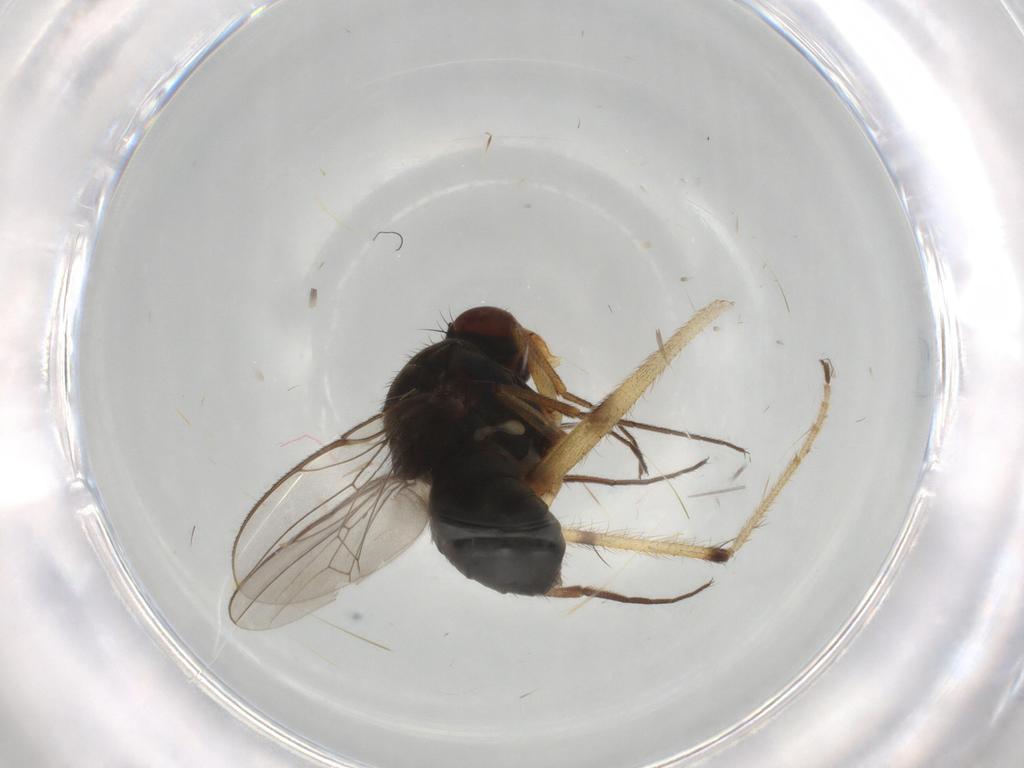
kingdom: Animalia
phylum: Arthropoda
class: Insecta
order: Diptera
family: Limoniidae
